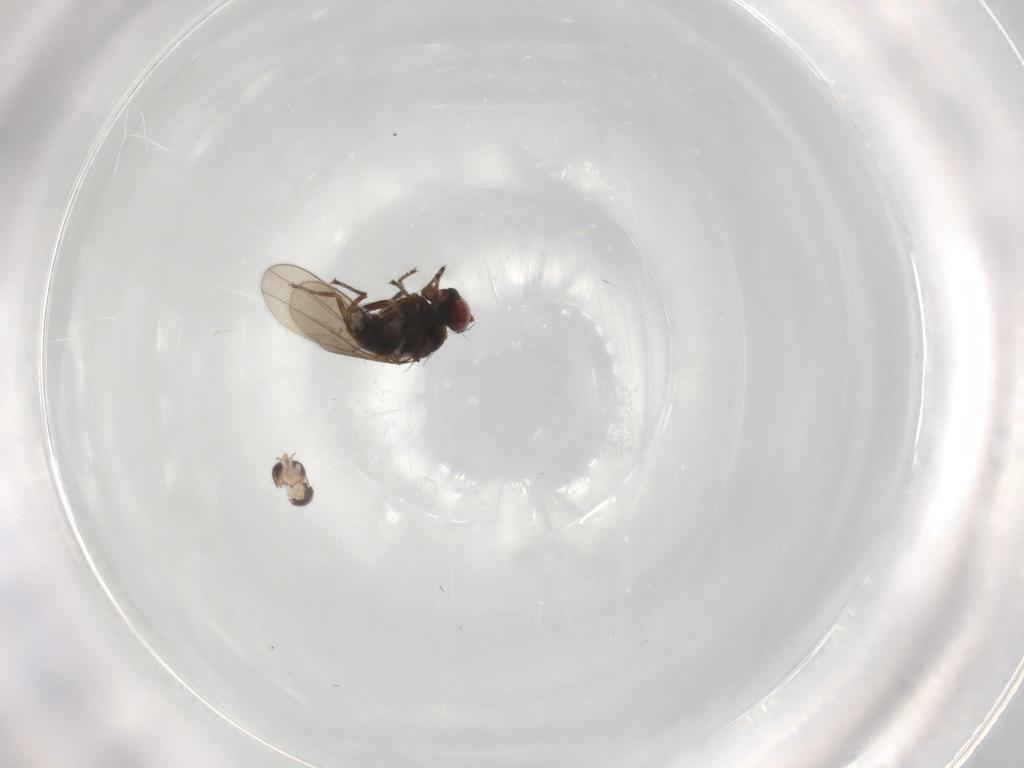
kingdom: Animalia
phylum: Arthropoda
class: Insecta
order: Diptera
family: Ephydridae
